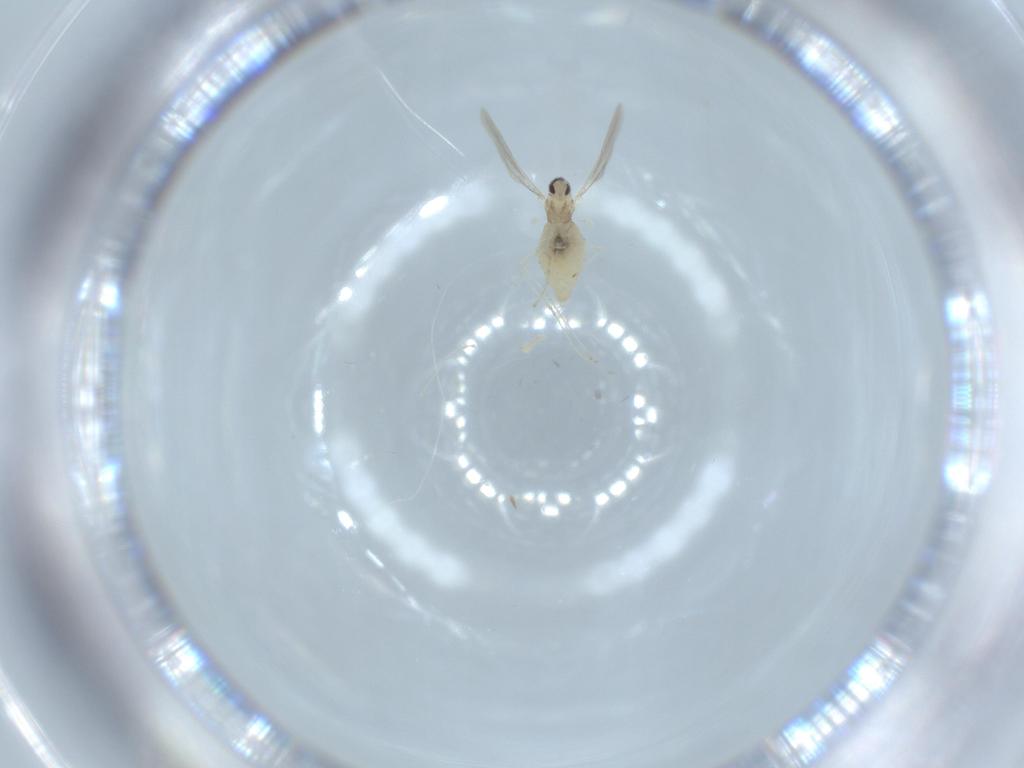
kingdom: Animalia
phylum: Arthropoda
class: Insecta
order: Diptera
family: Cecidomyiidae
